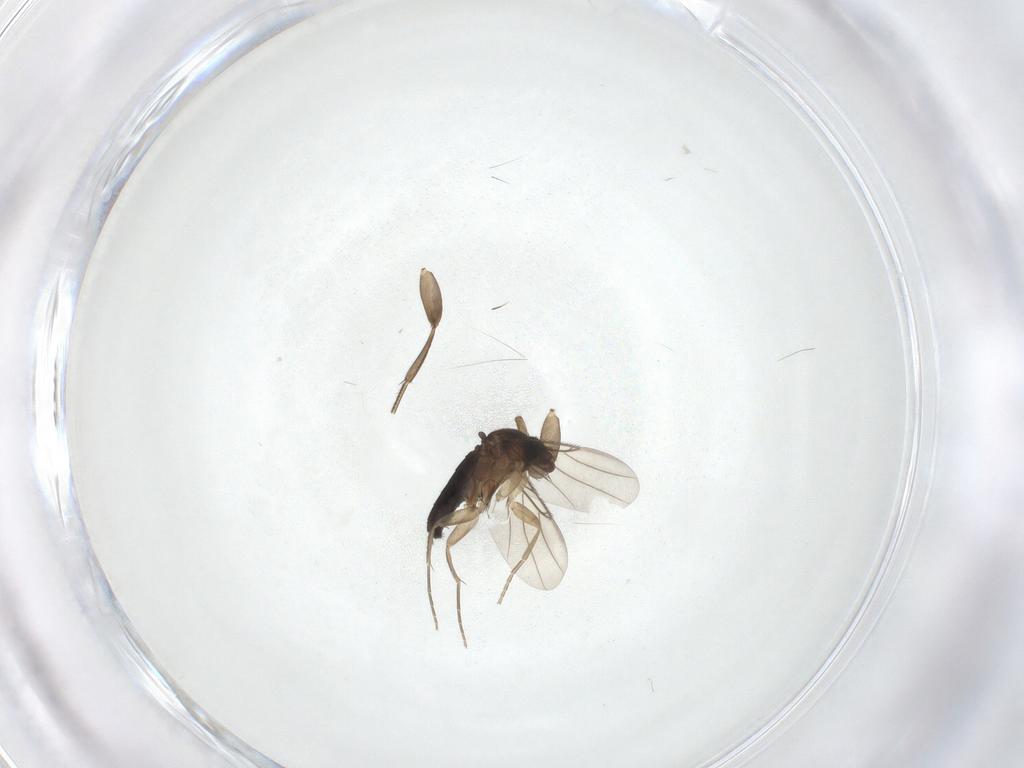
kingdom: Animalia
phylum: Arthropoda
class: Insecta
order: Diptera
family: Phoridae
